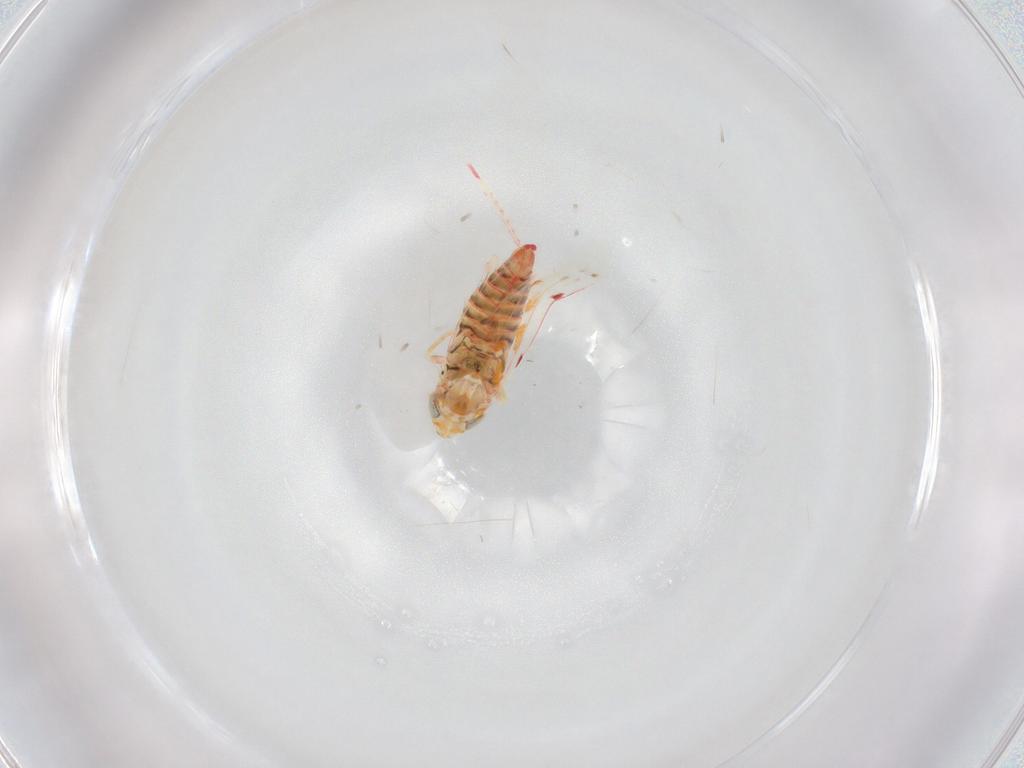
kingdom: Animalia
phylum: Arthropoda
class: Insecta
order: Hemiptera
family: Cicadellidae
